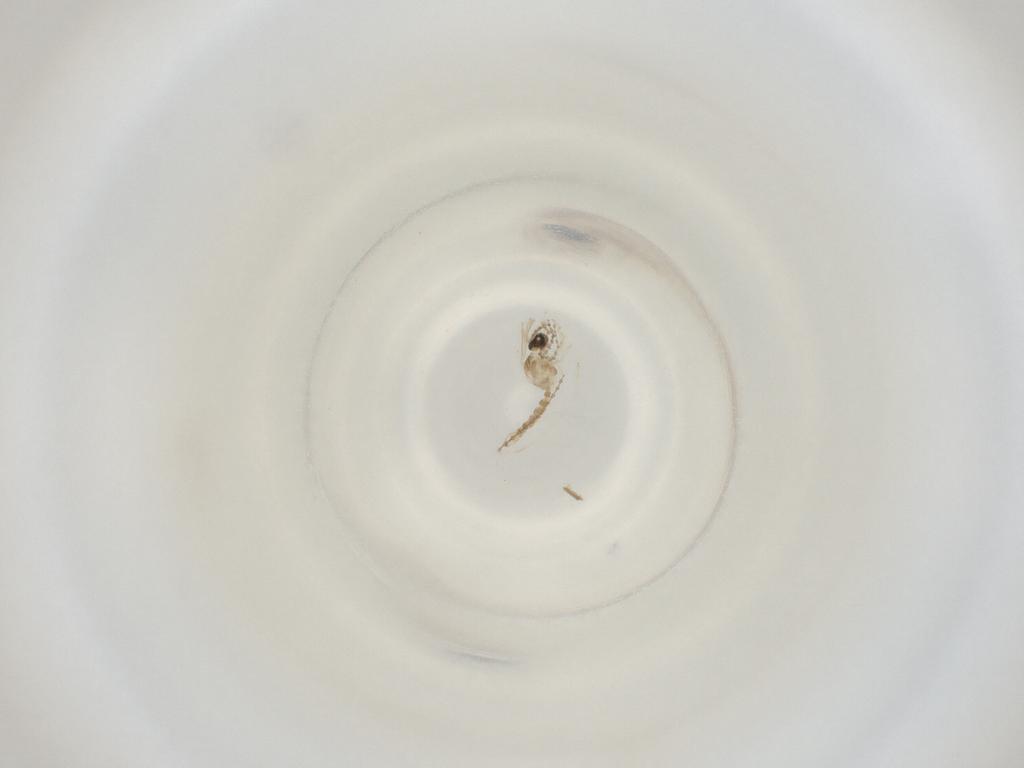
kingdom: Animalia
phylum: Arthropoda
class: Insecta
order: Diptera
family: Cecidomyiidae
